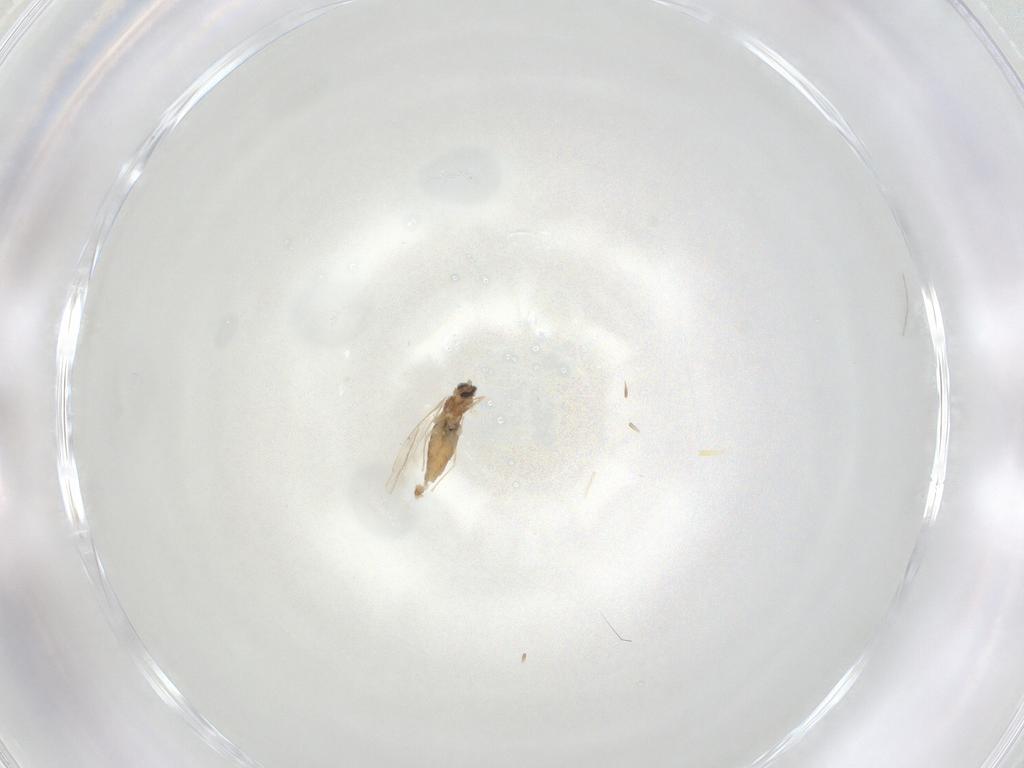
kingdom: Animalia
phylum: Arthropoda
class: Insecta
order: Diptera
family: Cecidomyiidae
